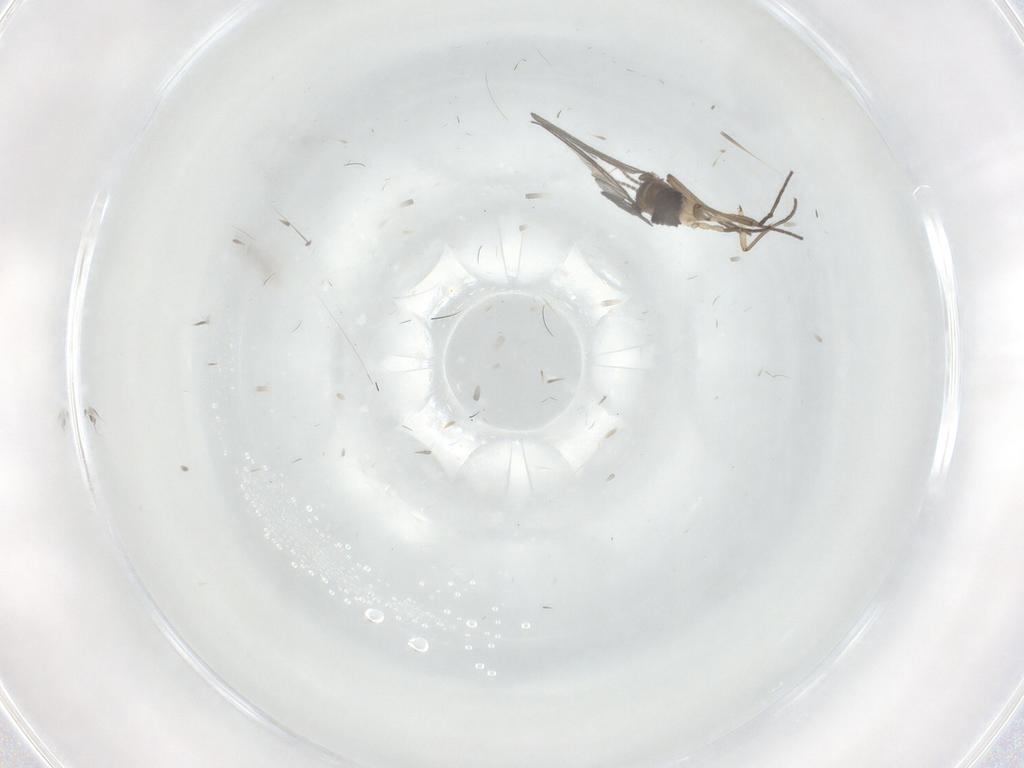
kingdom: Animalia
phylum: Arthropoda
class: Insecta
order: Diptera
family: Sciaridae
